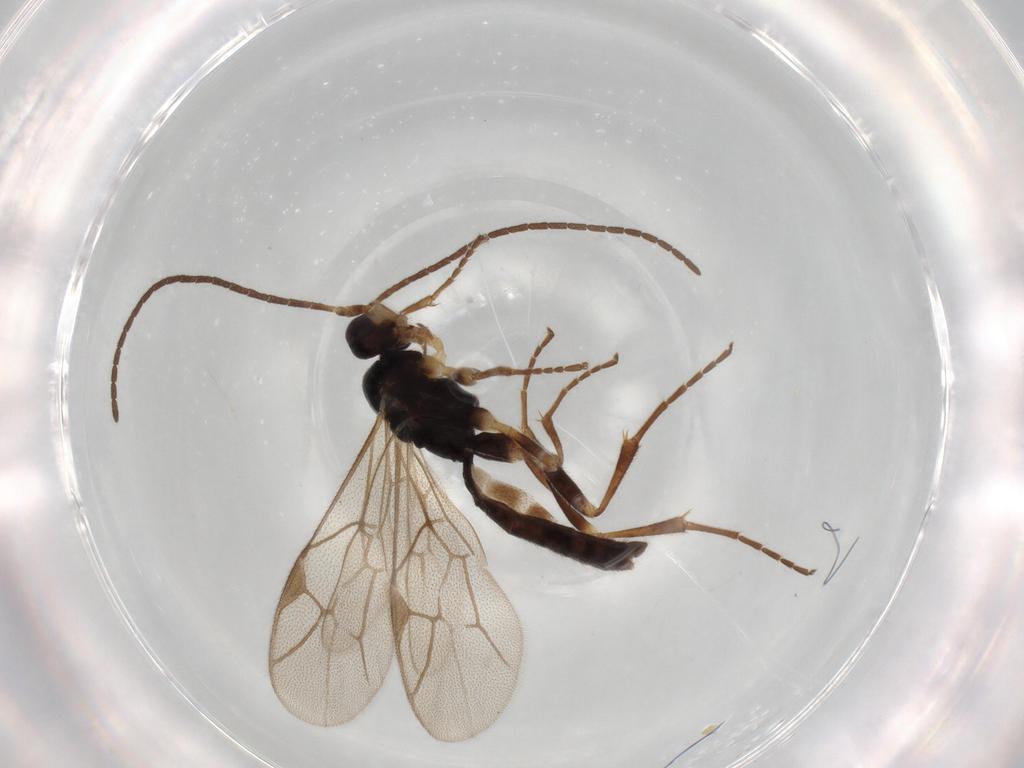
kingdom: Animalia
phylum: Arthropoda
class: Insecta
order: Hymenoptera
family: Ichneumonidae
